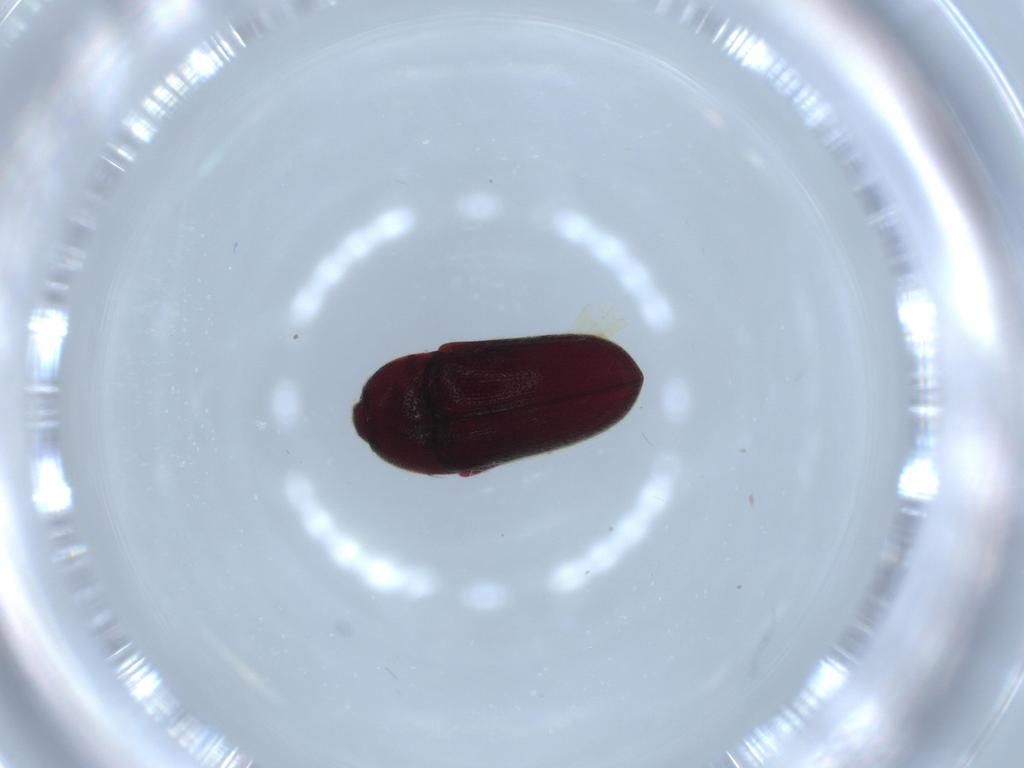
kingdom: Animalia
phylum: Arthropoda
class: Insecta
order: Coleoptera
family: Throscidae
